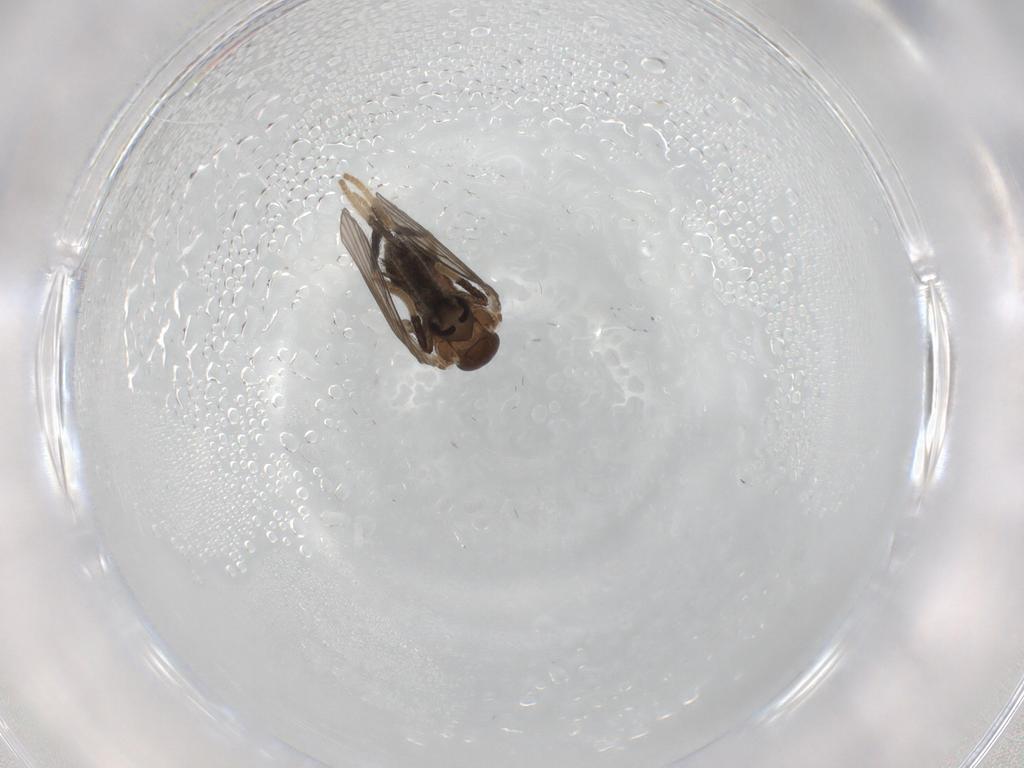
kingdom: Animalia
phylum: Arthropoda
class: Insecta
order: Diptera
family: Psychodidae
